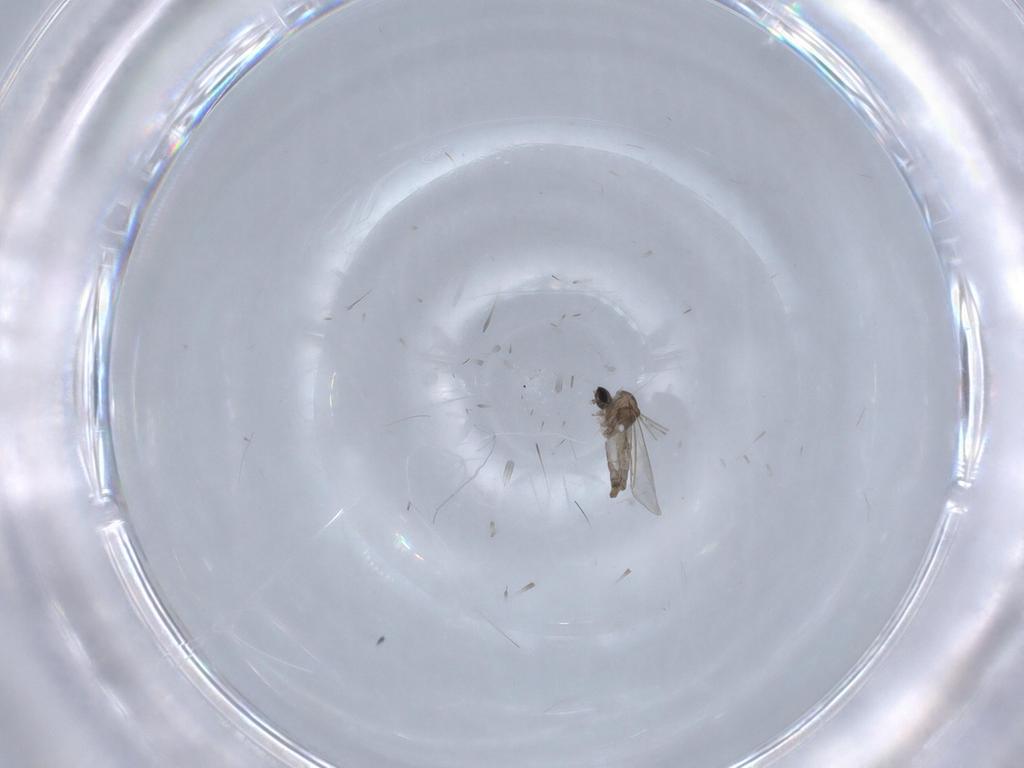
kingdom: Animalia
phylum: Arthropoda
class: Insecta
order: Diptera
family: Cecidomyiidae
